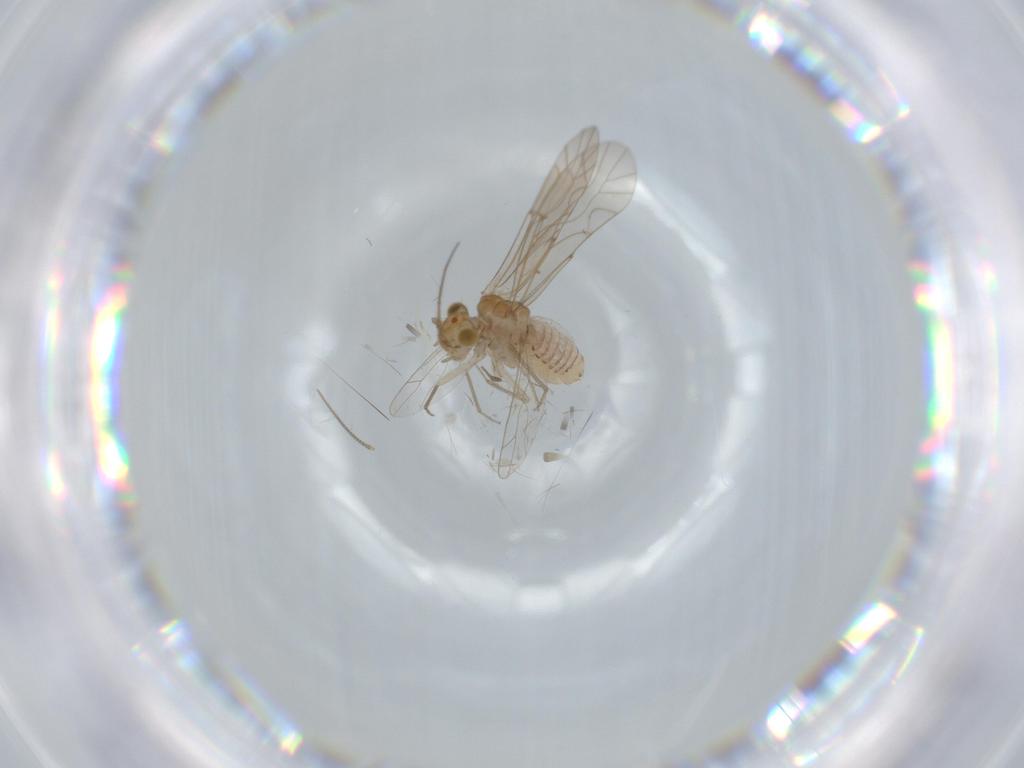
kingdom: Animalia
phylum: Arthropoda
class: Insecta
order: Psocodea
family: Lachesillidae
